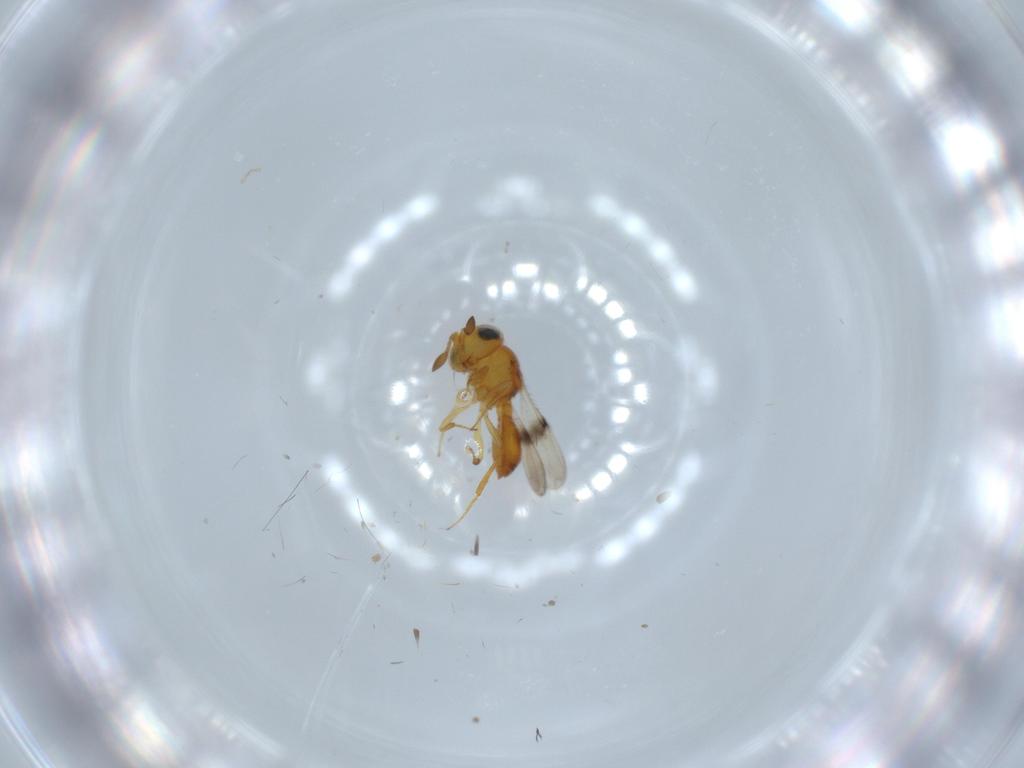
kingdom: Animalia
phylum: Arthropoda
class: Insecta
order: Hymenoptera
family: Scelionidae
